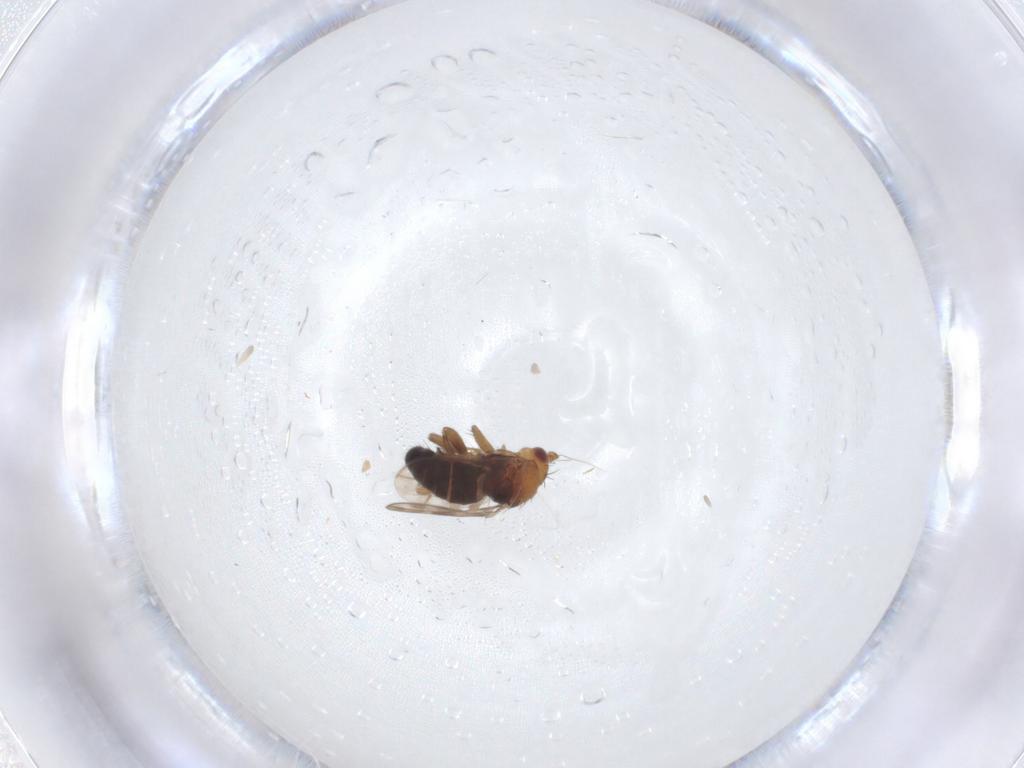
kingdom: Animalia
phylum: Arthropoda
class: Insecta
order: Diptera
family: Sphaeroceridae
